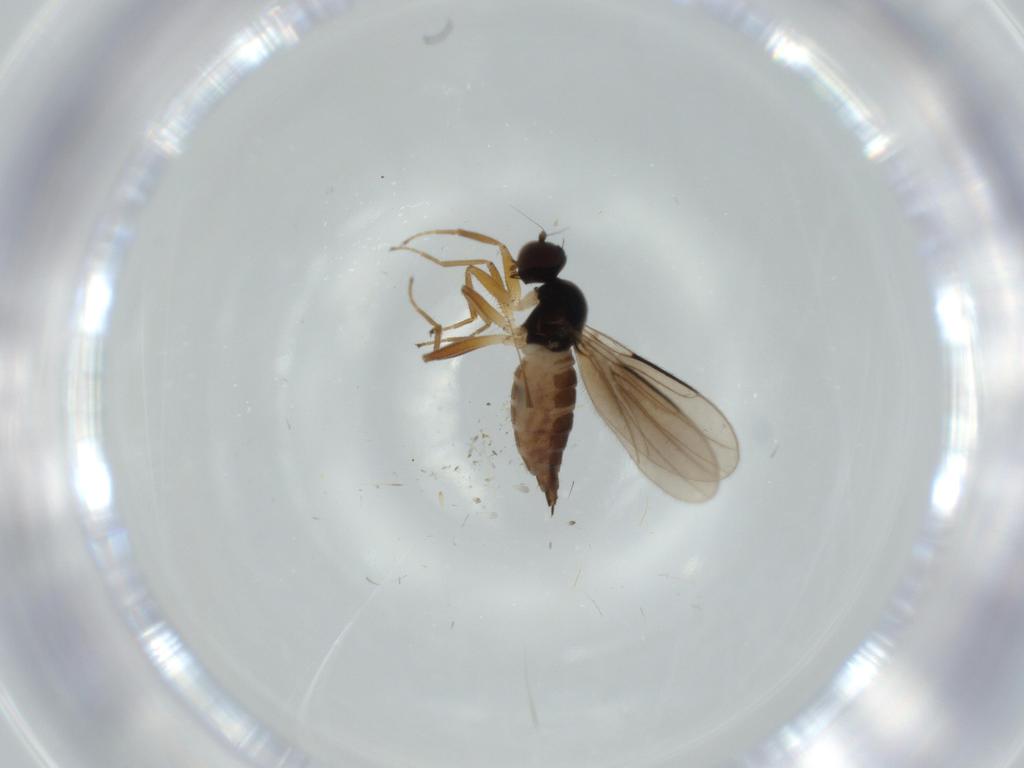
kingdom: Animalia
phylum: Arthropoda
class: Insecta
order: Diptera
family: Hybotidae
